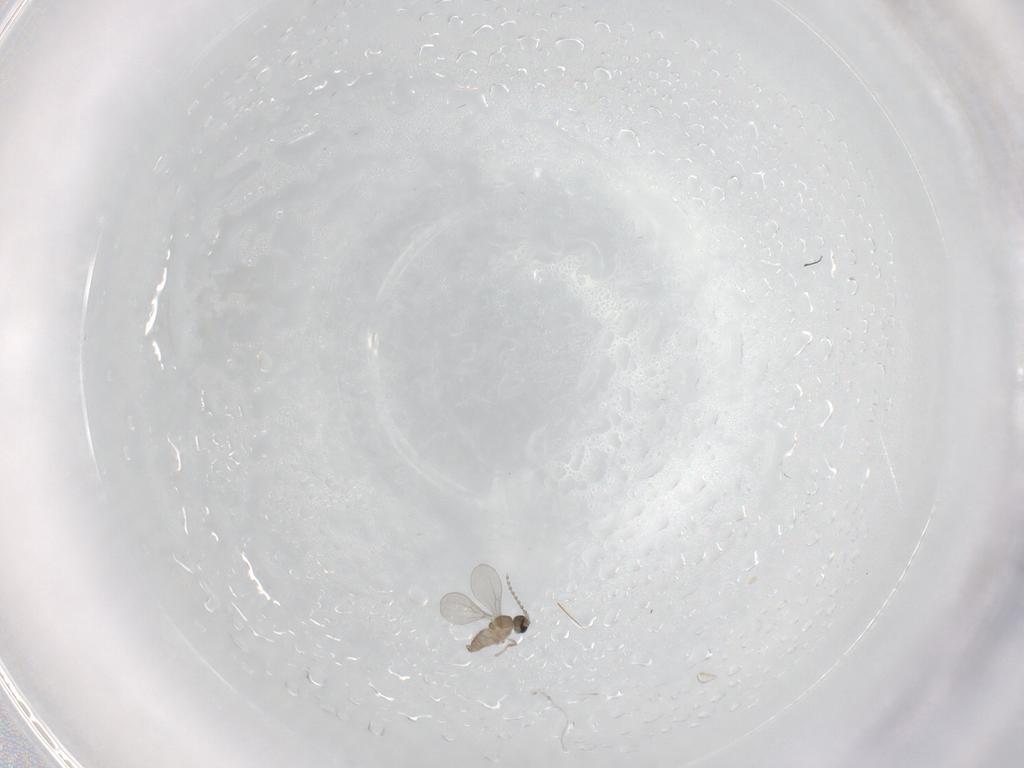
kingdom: Animalia
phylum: Arthropoda
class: Insecta
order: Diptera
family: Cecidomyiidae
